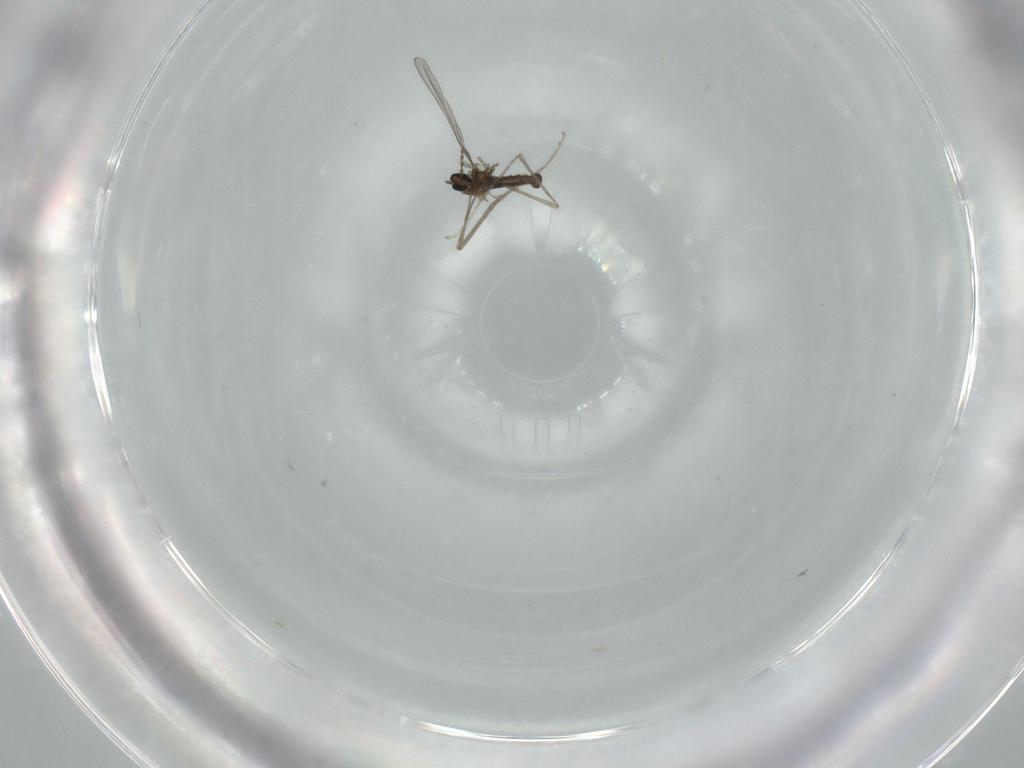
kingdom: Animalia
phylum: Arthropoda
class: Insecta
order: Diptera
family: Cecidomyiidae
